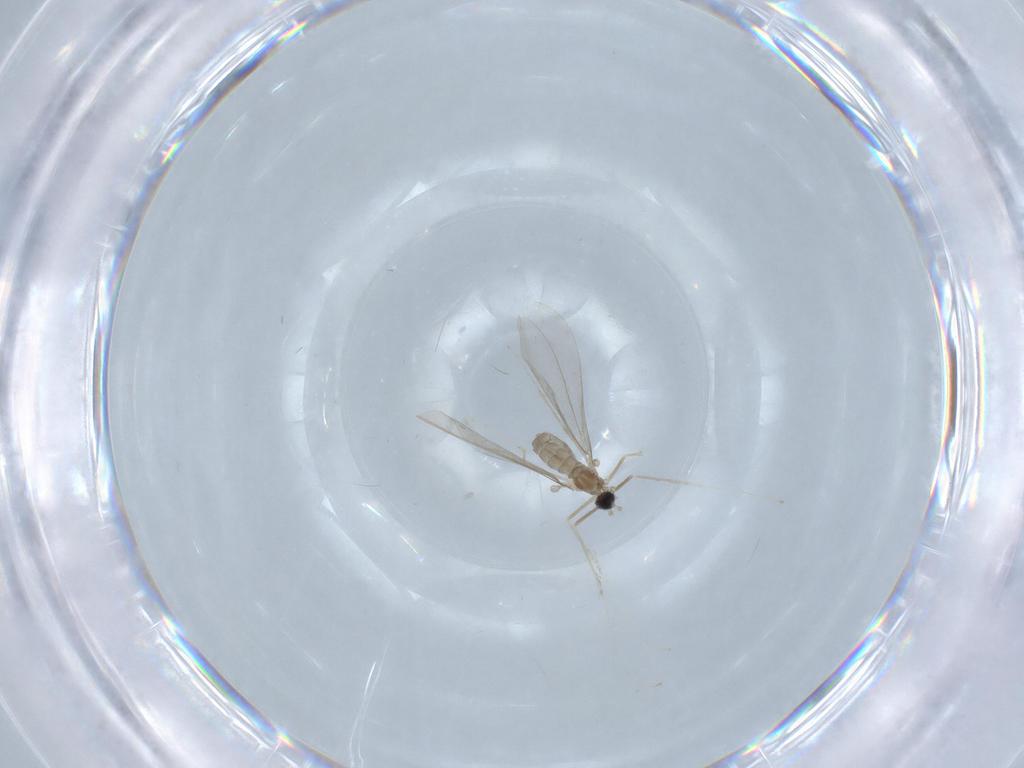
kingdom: Animalia
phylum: Arthropoda
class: Insecta
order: Diptera
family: Cecidomyiidae
